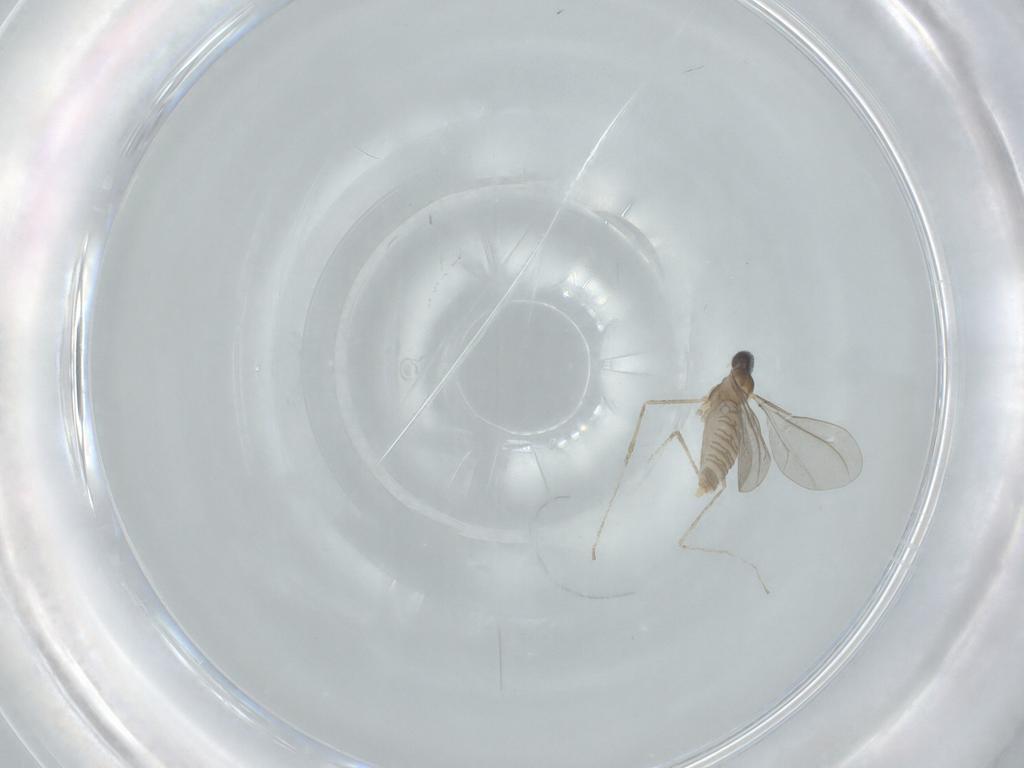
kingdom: Animalia
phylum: Arthropoda
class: Insecta
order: Diptera
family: Cecidomyiidae
